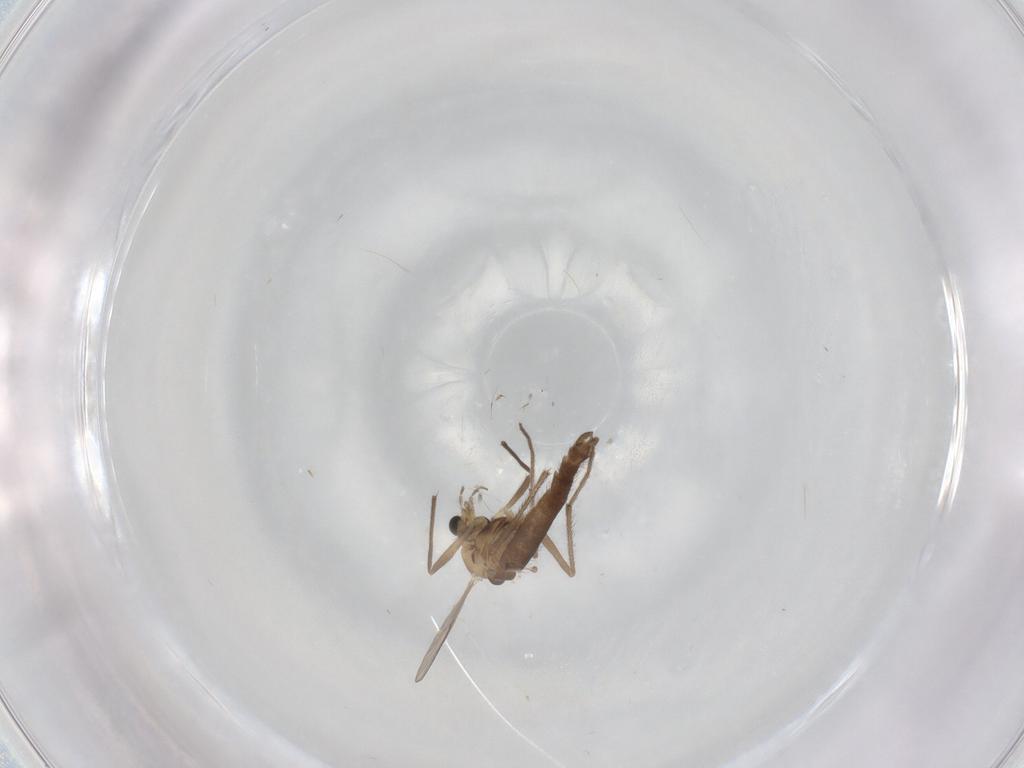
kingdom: Animalia
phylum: Arthropoda
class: Insecta
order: Diptera
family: Chironomidae
